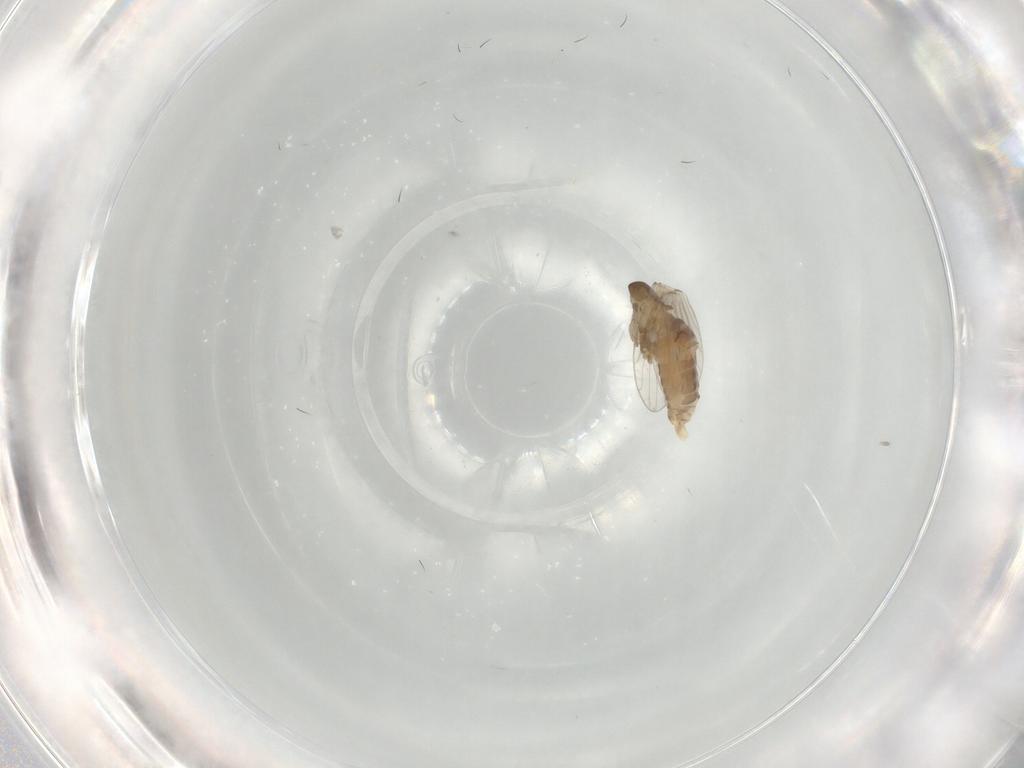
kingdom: Animalia
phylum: Arthropoda
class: Insecta
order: Diptera
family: Psychodidae
